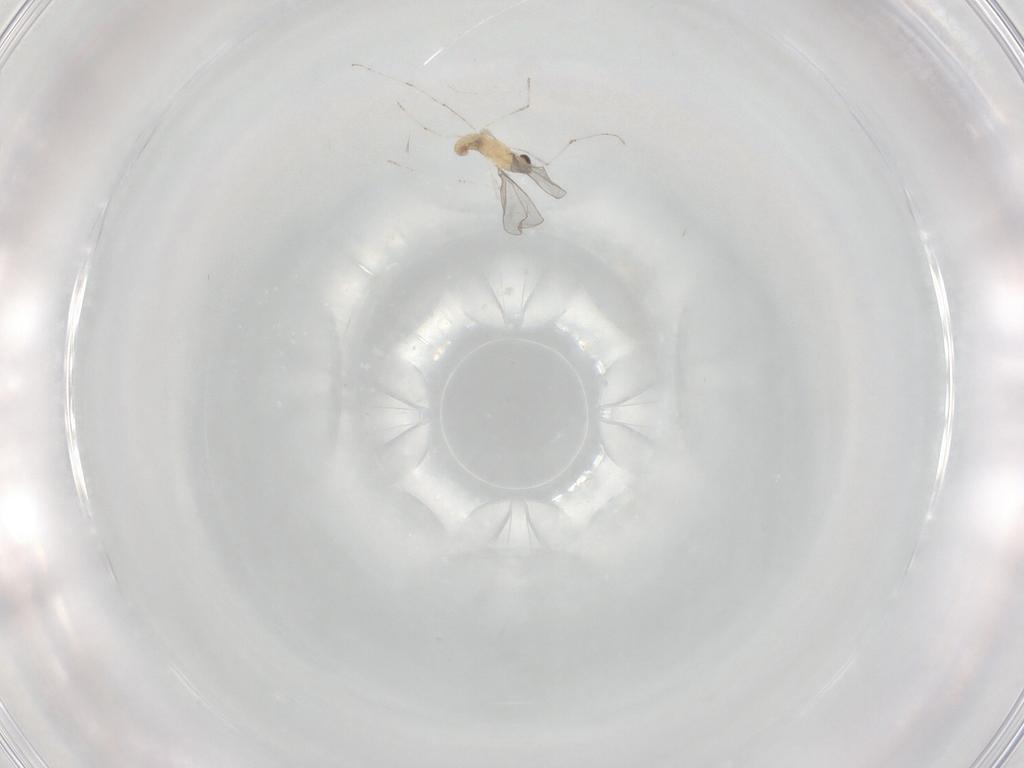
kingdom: Animalia
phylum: Arthropoda
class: Insecta
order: Diptera
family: Cecidomyiidae
